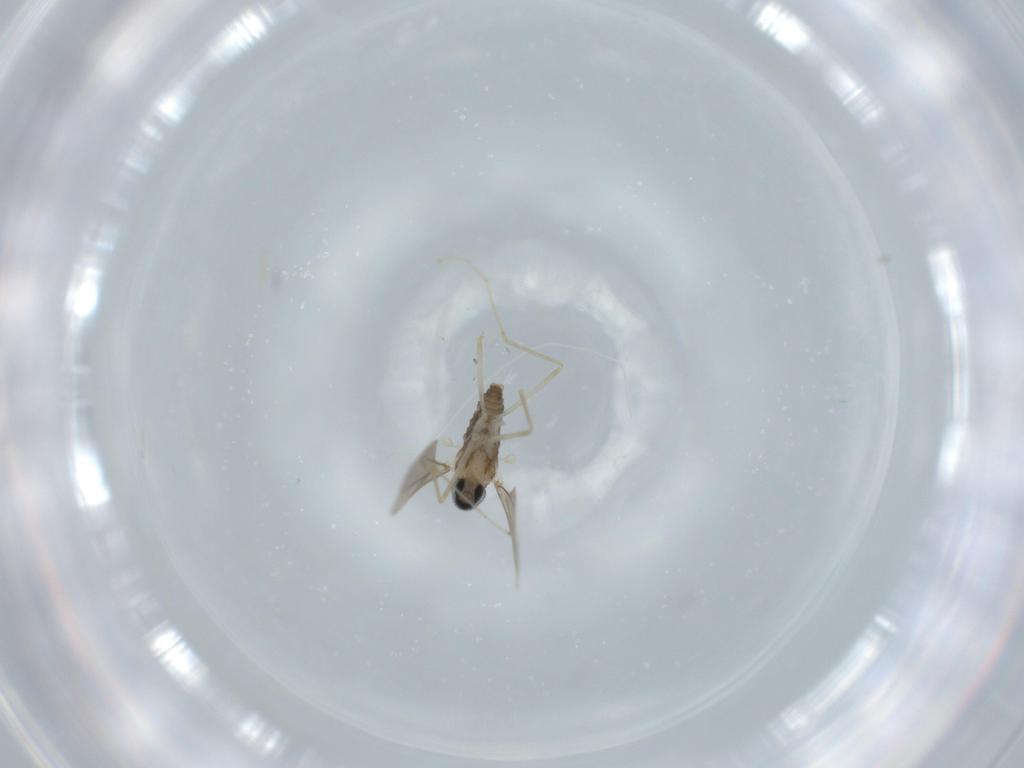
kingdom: Animalia
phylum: Arthropoda
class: Insecta
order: Diptera
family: Cecidomyiidae
